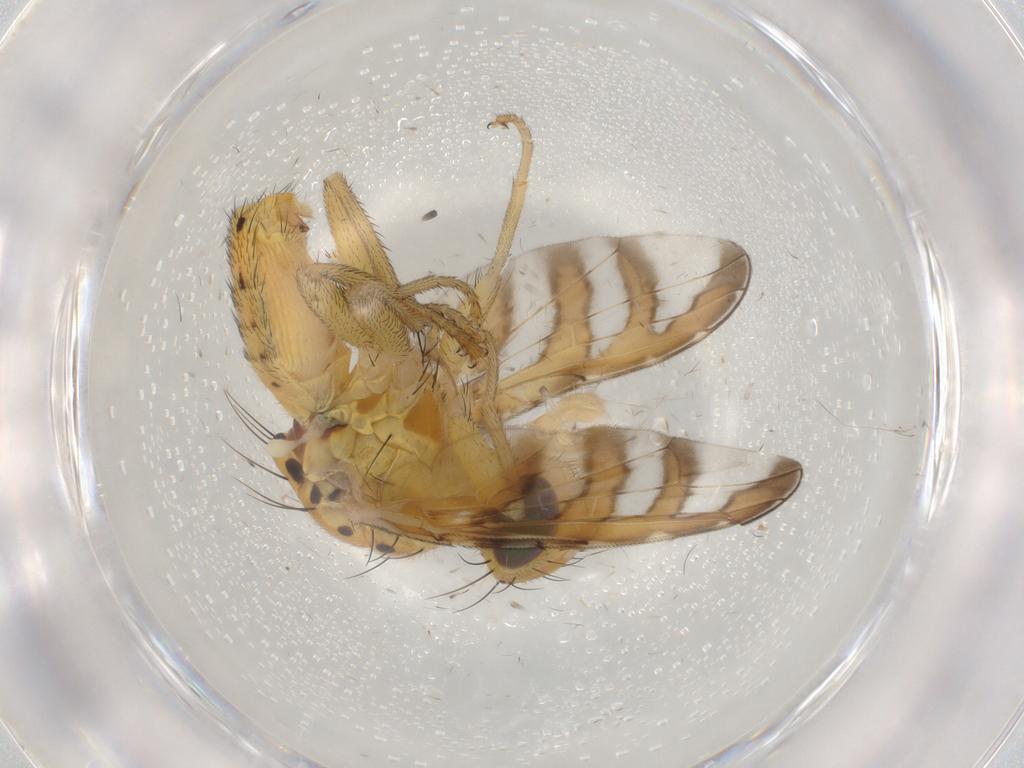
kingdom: Animalia
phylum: Arthropoda
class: Insecta
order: Diptera
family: Tephritidae
